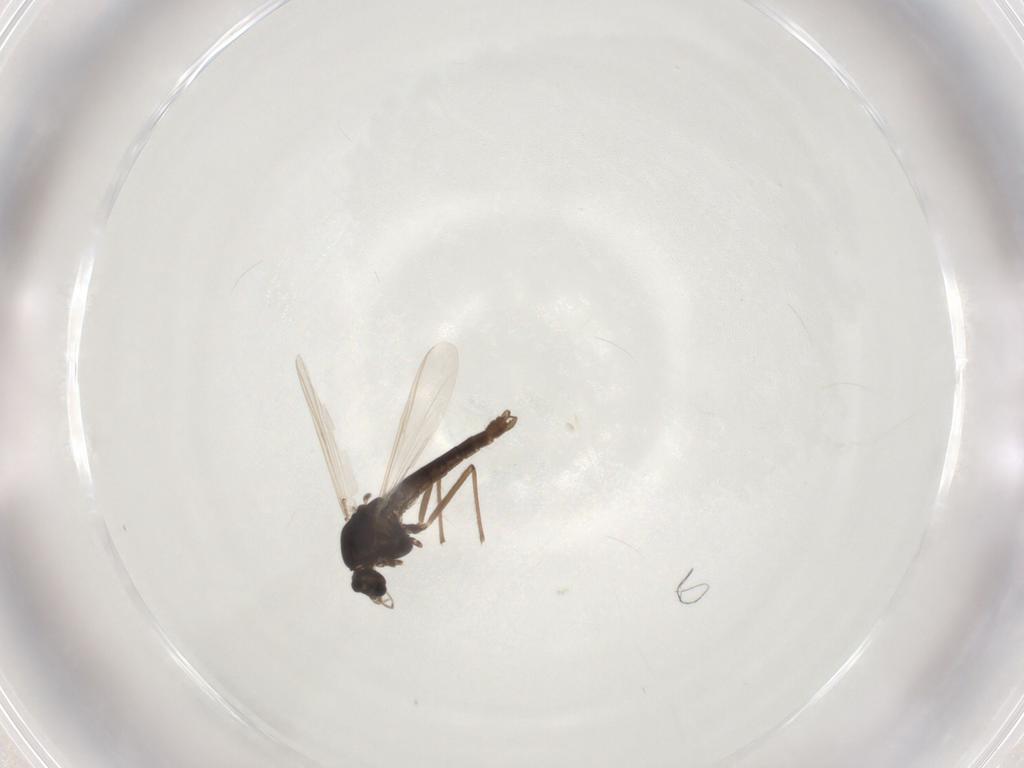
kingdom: Animalia
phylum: Arthropoda
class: Insecta
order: Diptera
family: Chironomidae
